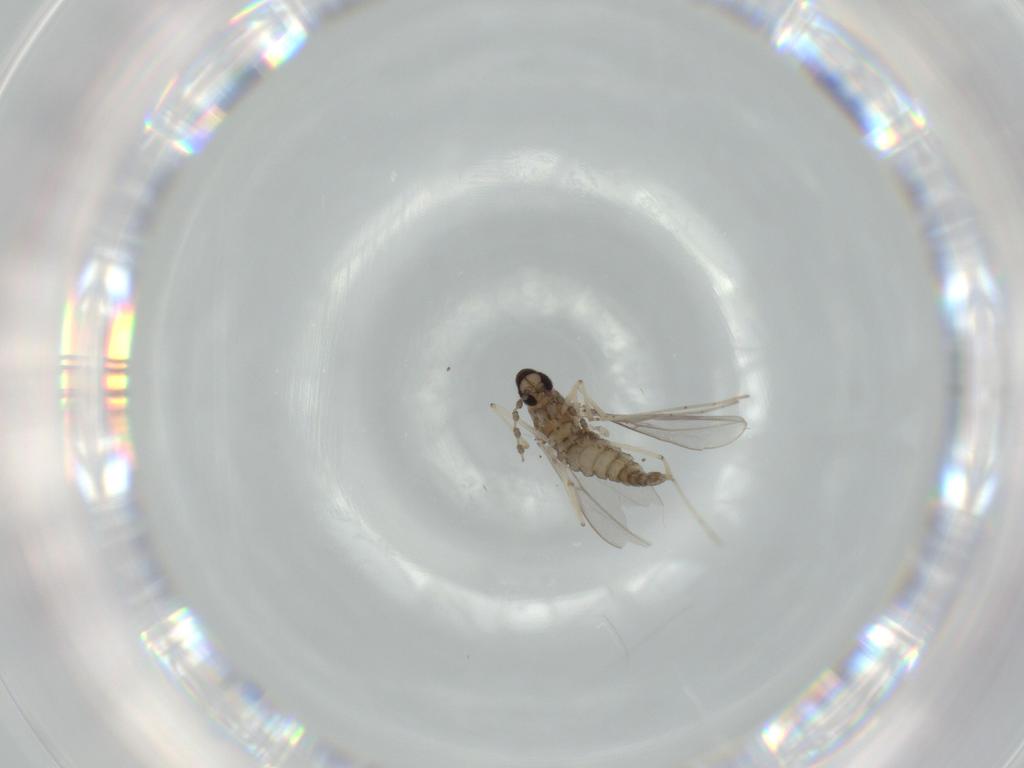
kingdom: Animalia
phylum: Arthropoda
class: Insecta
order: Diptera
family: Cecidomyiidae
